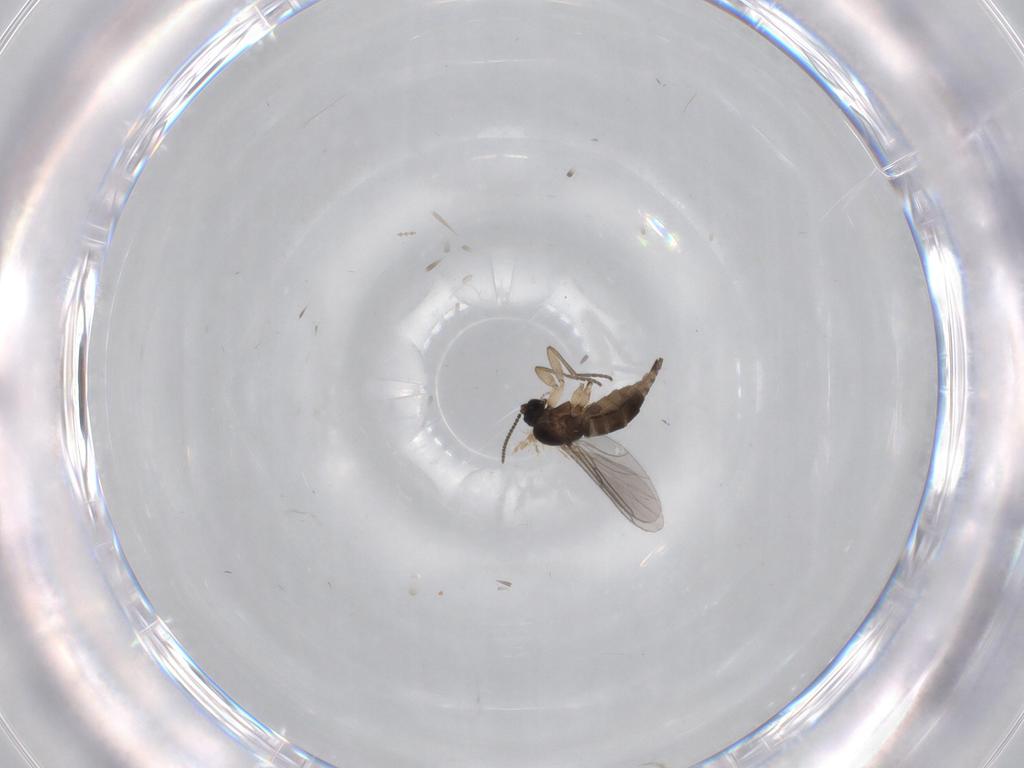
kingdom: Animalia
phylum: Arthropoda
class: Insecta
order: Diptera
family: Sciaridae
